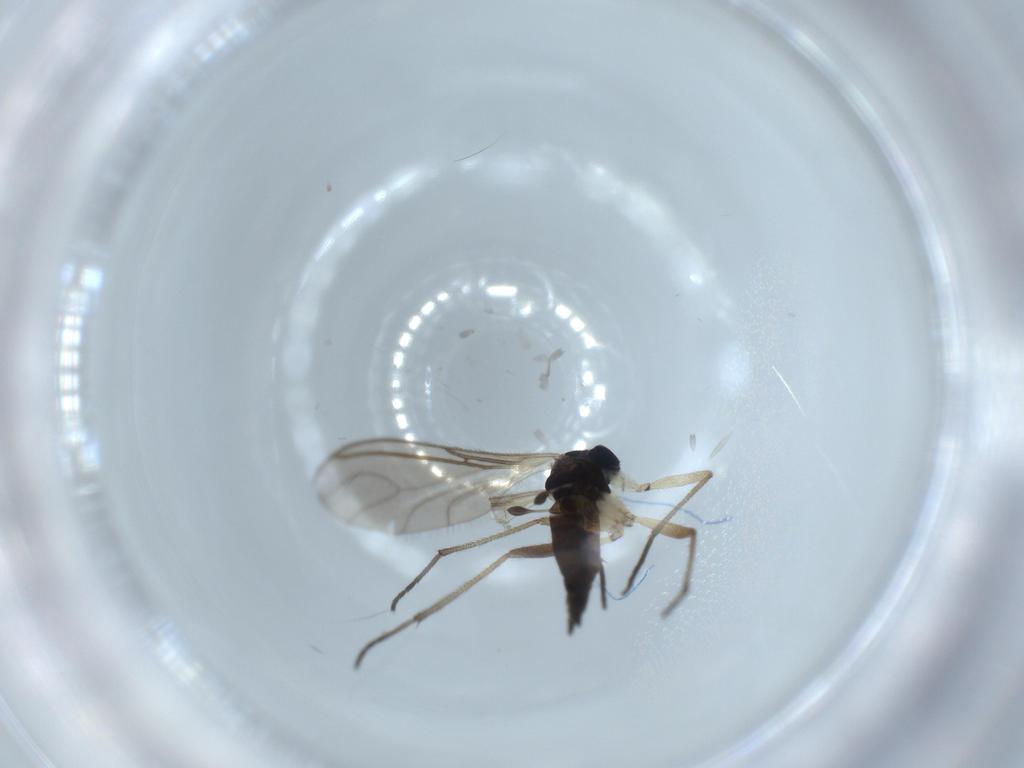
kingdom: Animalia
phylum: Arthropoda
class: Insecta
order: Diptera
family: Sciaridae
